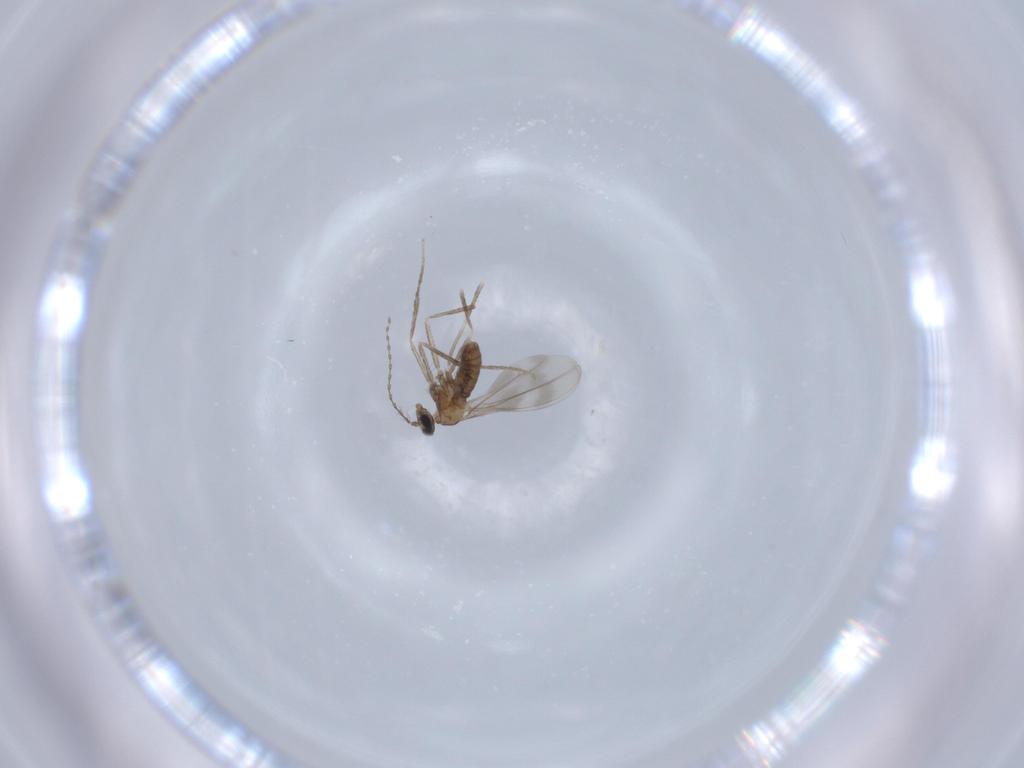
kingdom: Animalia
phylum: Arthropoda
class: Insecta
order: Diptera
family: Cecidomyiidae
